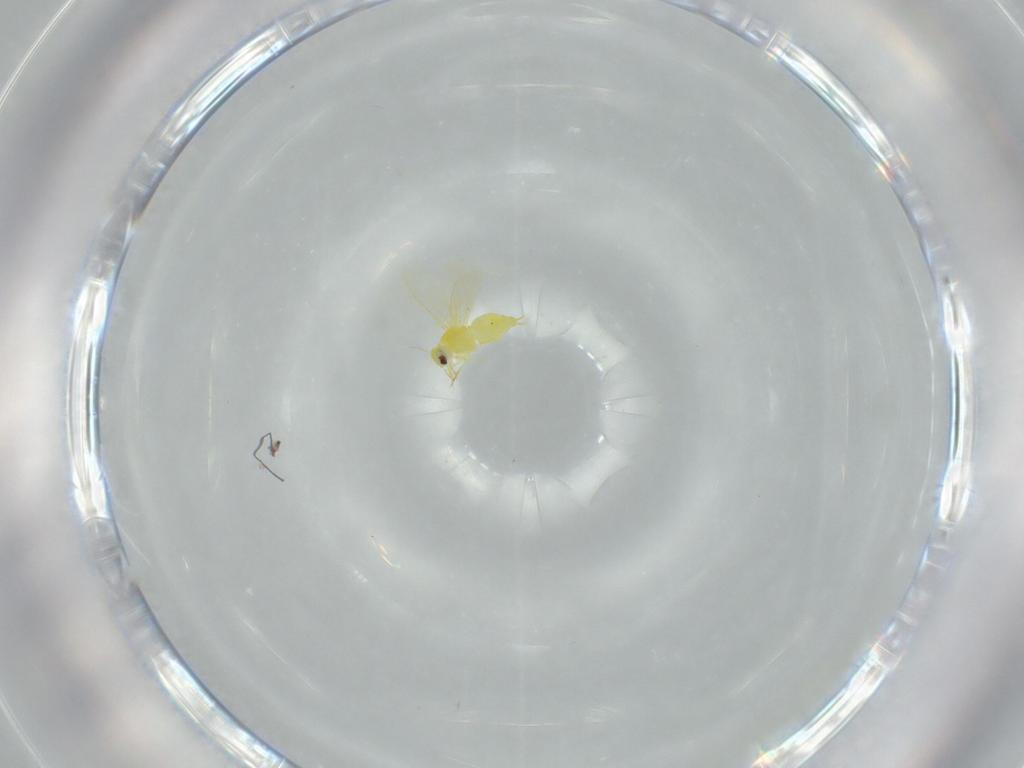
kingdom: Animalia
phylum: Arthropoda
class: Insecta
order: Hemiptera
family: Aleyrodidae
